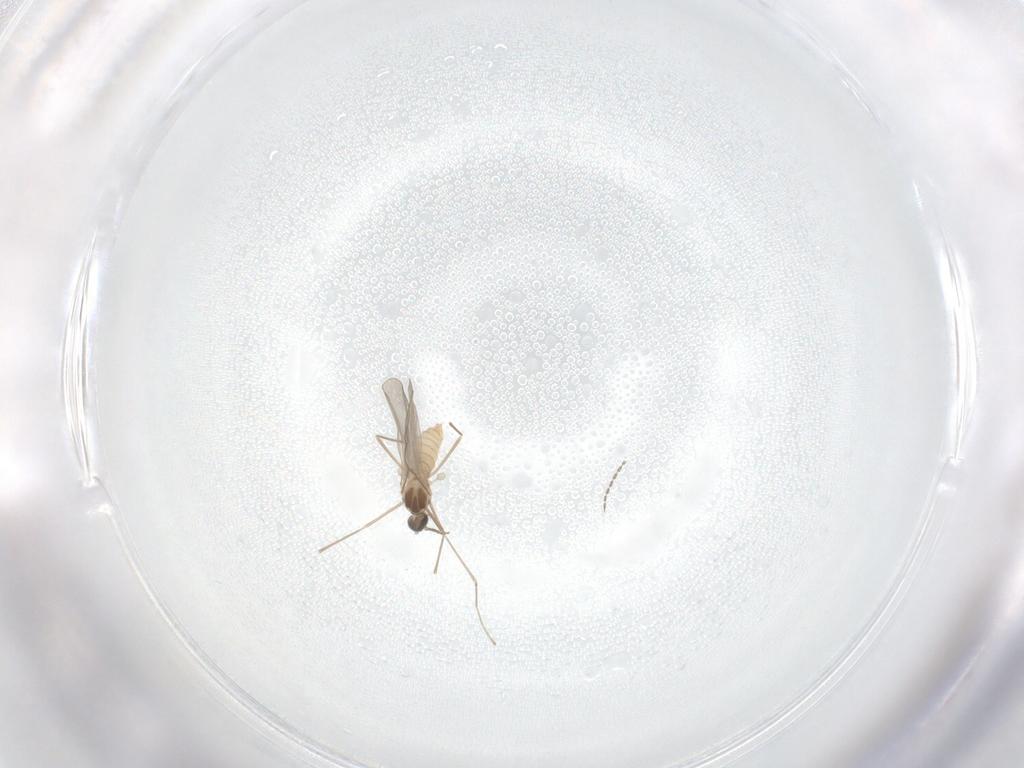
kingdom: Animalia
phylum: Arthropoda
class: Insecta
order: Diptera
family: Cecidomyiidae
